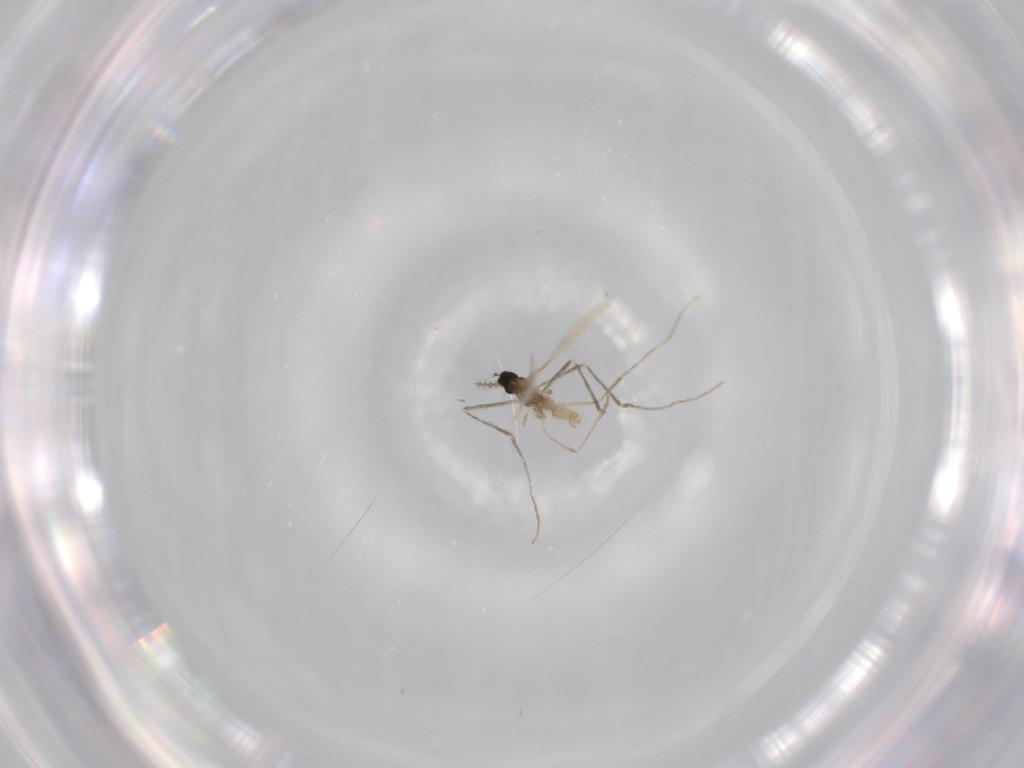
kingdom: Animalia
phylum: Arthropoda
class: Insecta
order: Diptera
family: Cecidomyiidae
